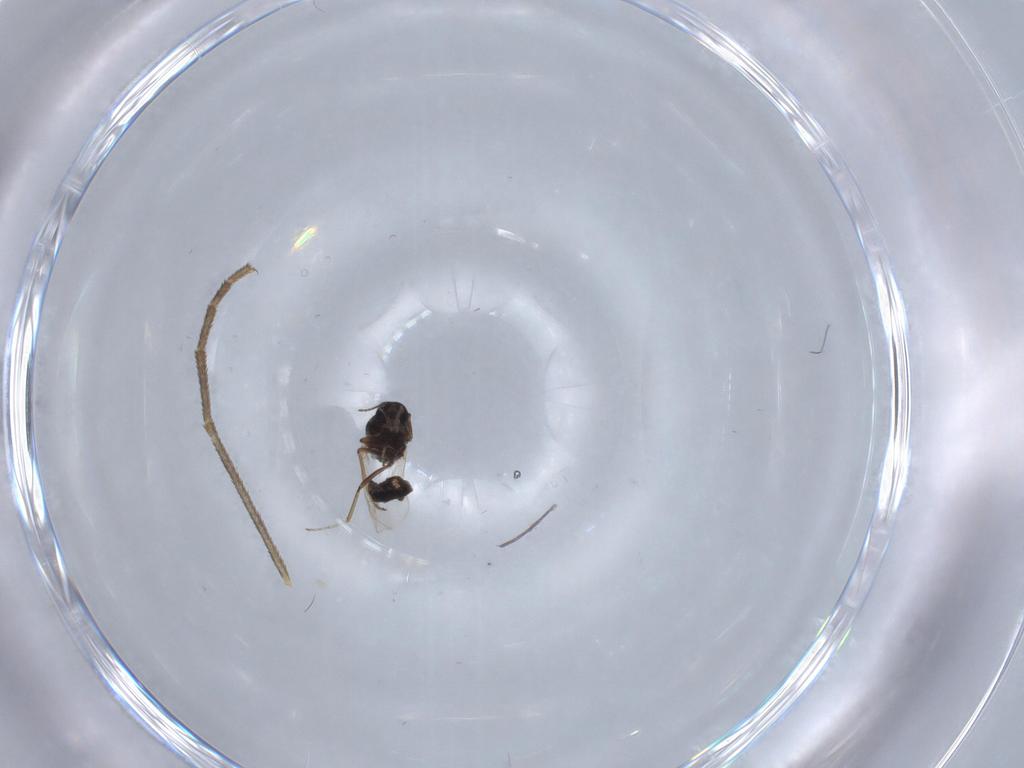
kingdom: Animalia
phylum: Arthropoda
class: Insecta
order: Diptera
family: Ceratopogonidae
